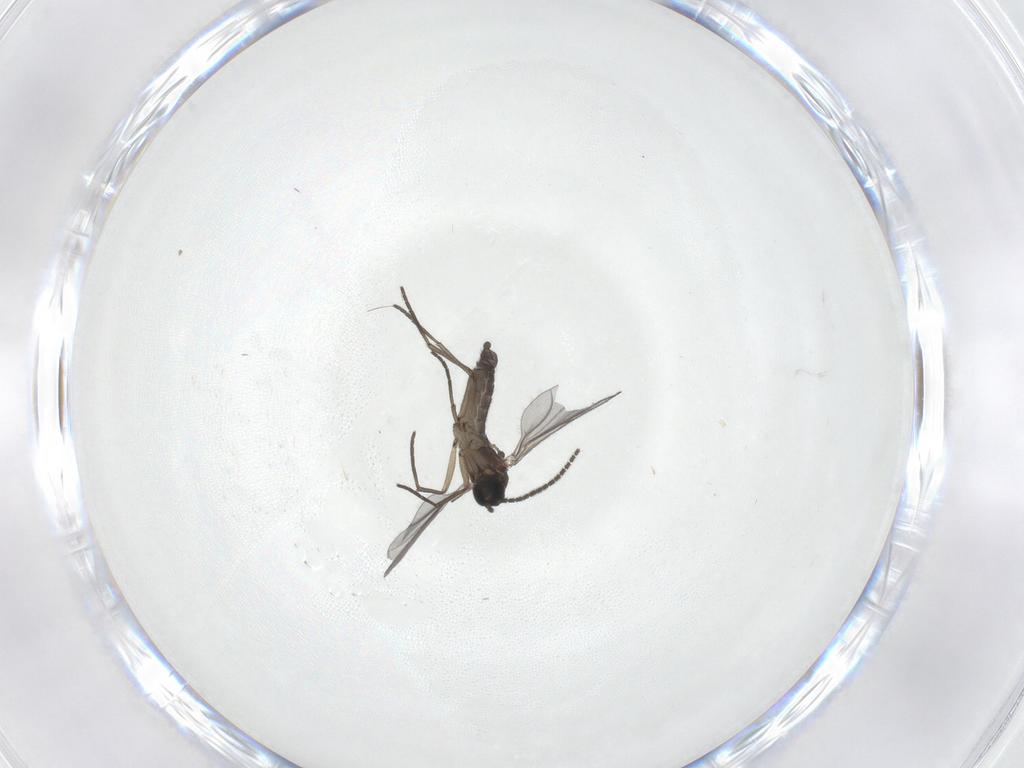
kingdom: Animalia
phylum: Arthropoda
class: Insecta
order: Diptera
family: Sciaridae
